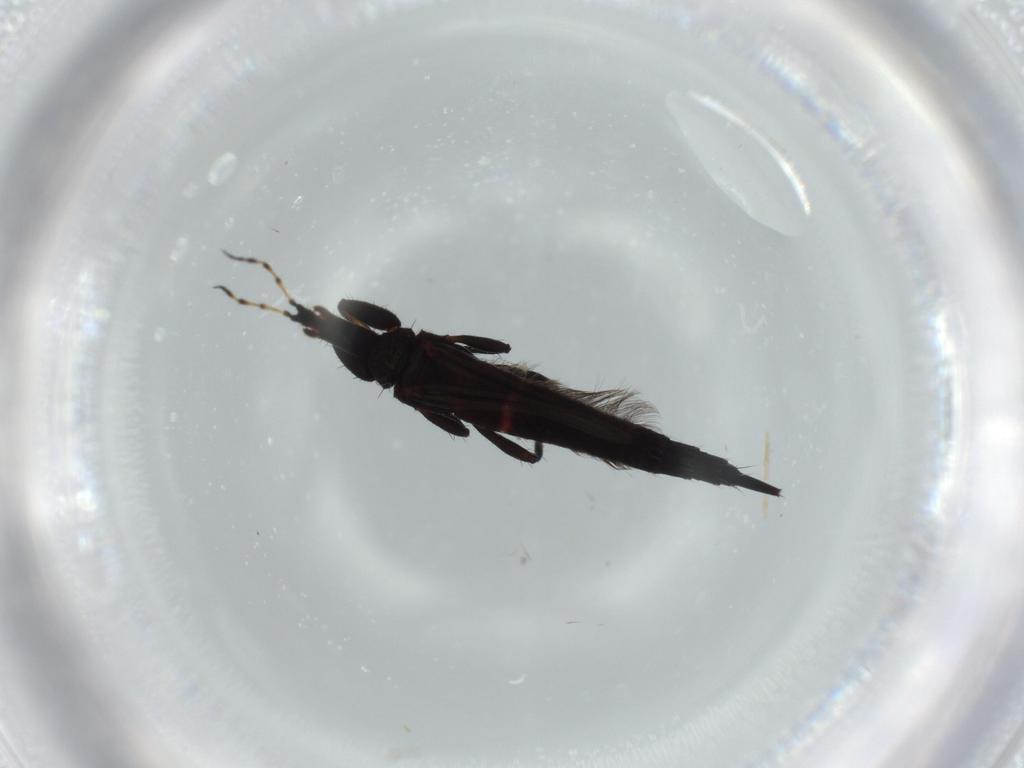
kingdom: Animalia
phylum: Arthropoda
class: Insecta
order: Thysanoptera
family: Phlaeothripidae
